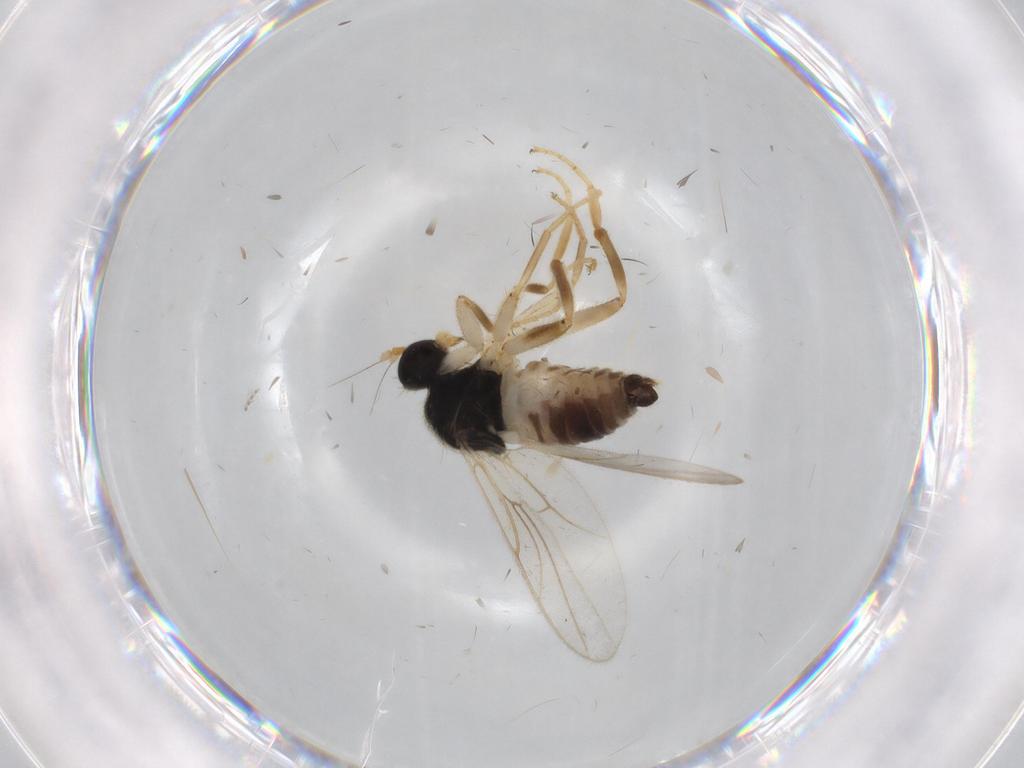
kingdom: Animalia
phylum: Arthropoda
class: Insecta
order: Diptera
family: Hybotidae
